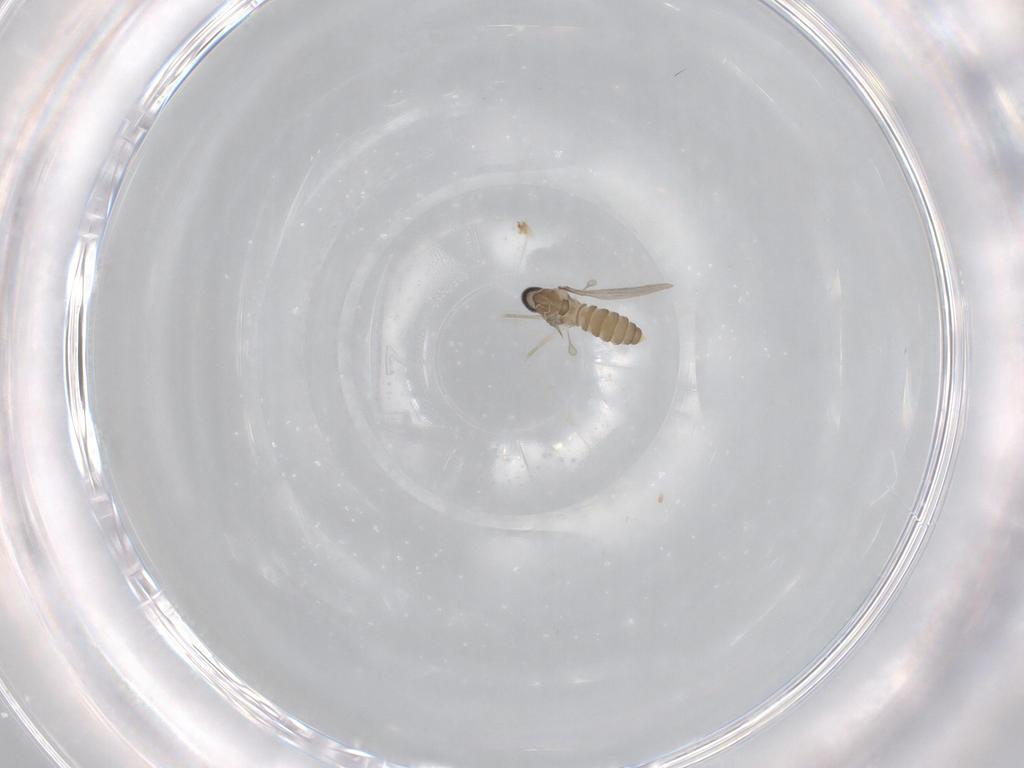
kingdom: Animalia
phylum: Arthropoda
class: Insecta
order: Diptera
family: Cecidomyiidae
